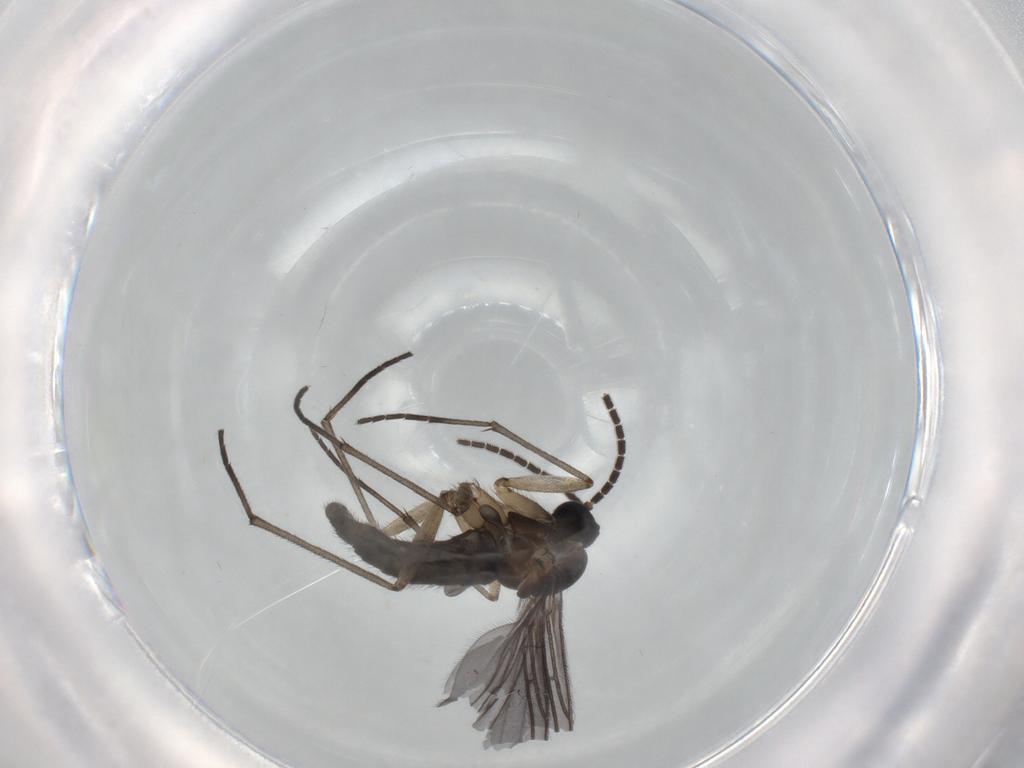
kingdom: Animalia
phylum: Arthropoda
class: Insecta
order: Diptera
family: Sciaridae
